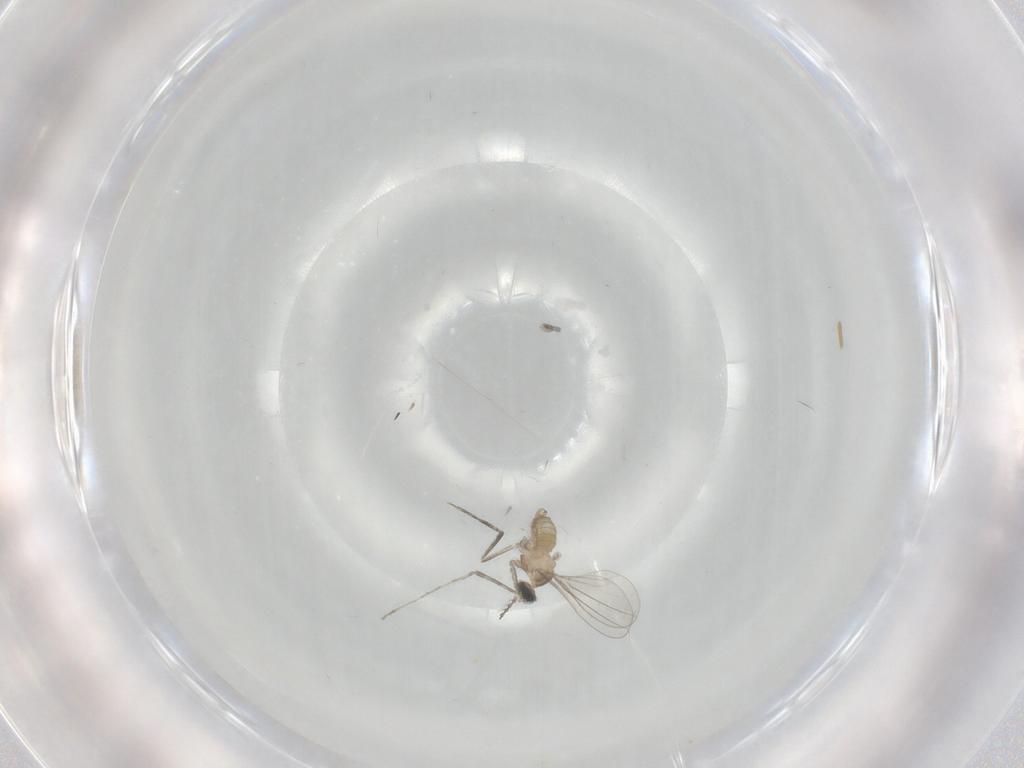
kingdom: Animalia
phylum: Arthropoda
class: Insecta
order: Diptera
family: Cecidomyiidae
